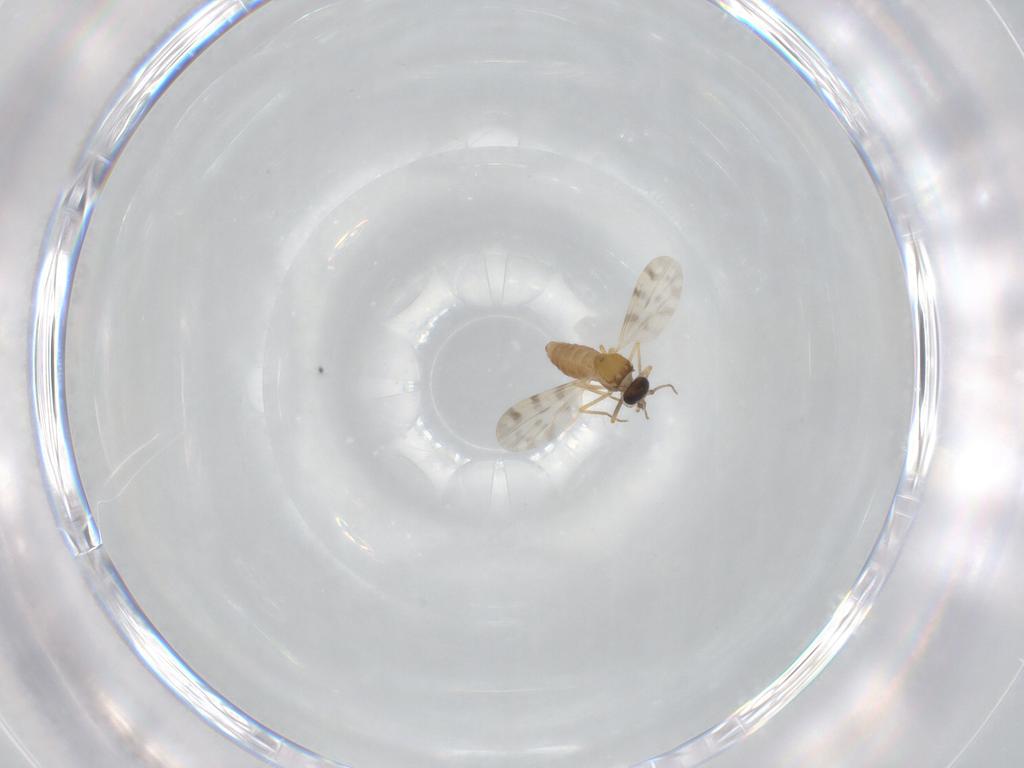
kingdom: Animalia
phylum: Arthropoda
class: Insecta
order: Diptera
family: Ceratopogonidae
